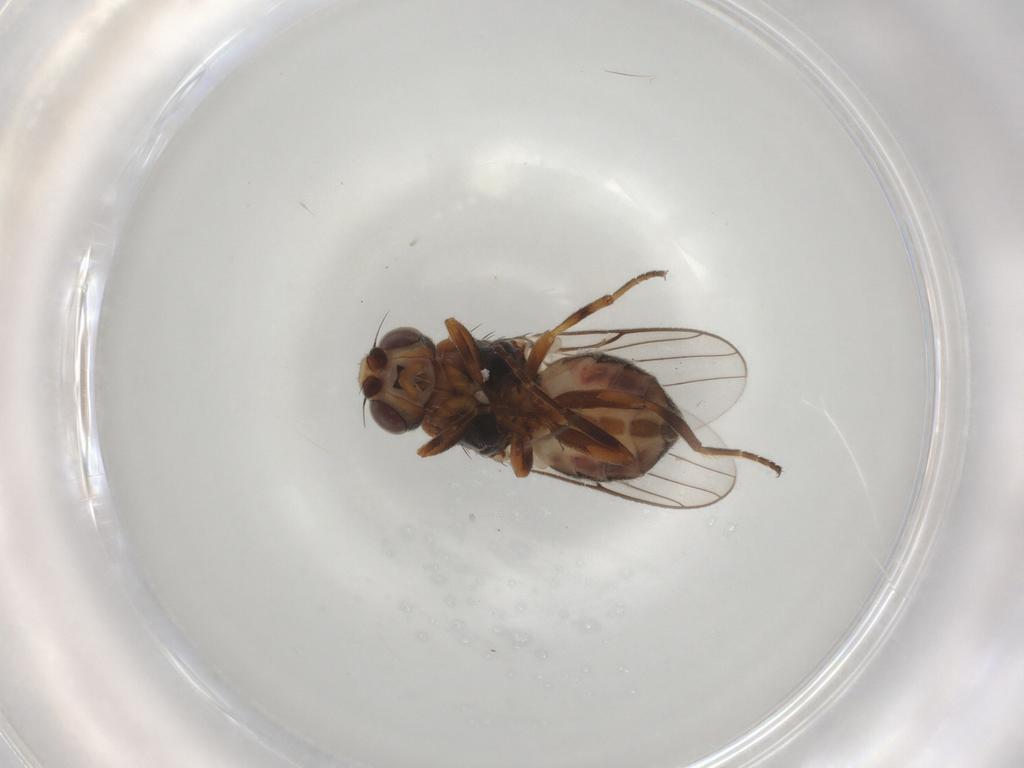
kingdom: Animalia
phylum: Arthropoda
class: Insecta
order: Diptera
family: Chloropidae
